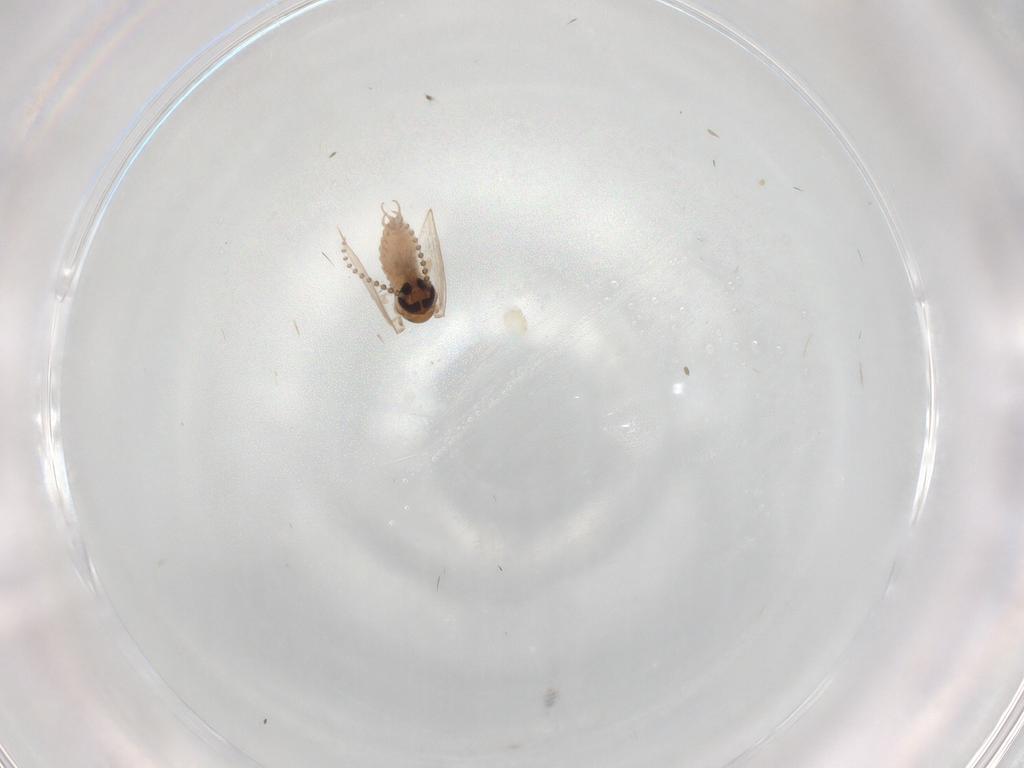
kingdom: Animalia
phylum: Arthropoda
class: Insecta
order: Diptera
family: Psychodidae
